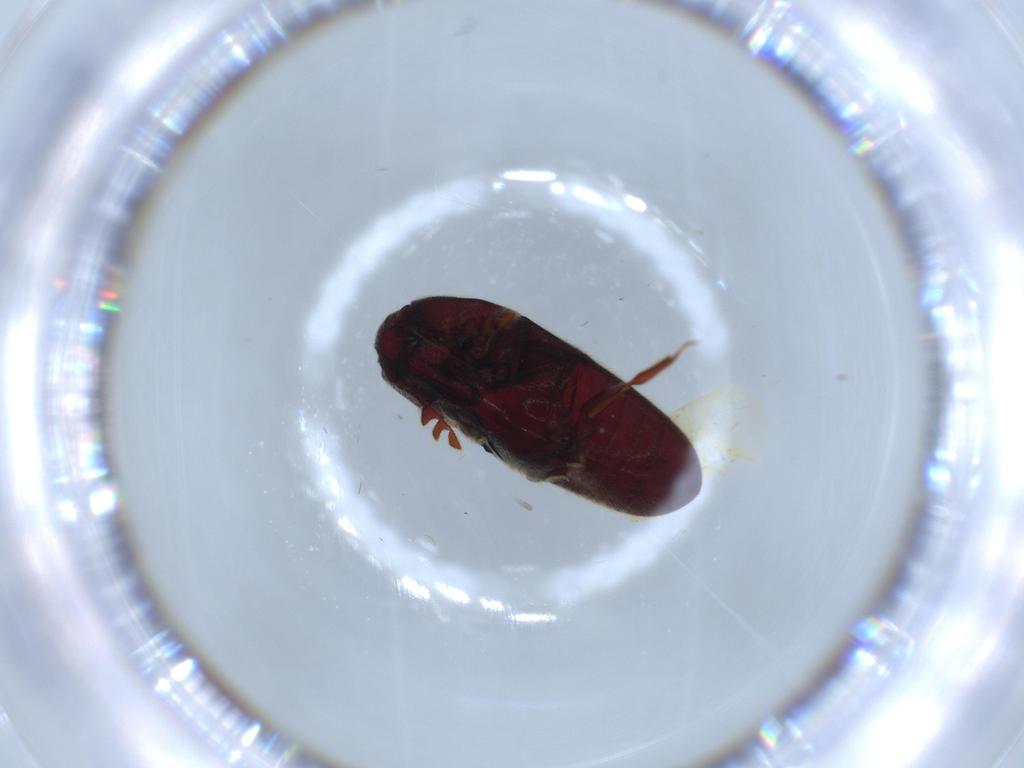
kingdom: Animalia
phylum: Arthropoda
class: Insecta
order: Coleoptera
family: Throscidae
